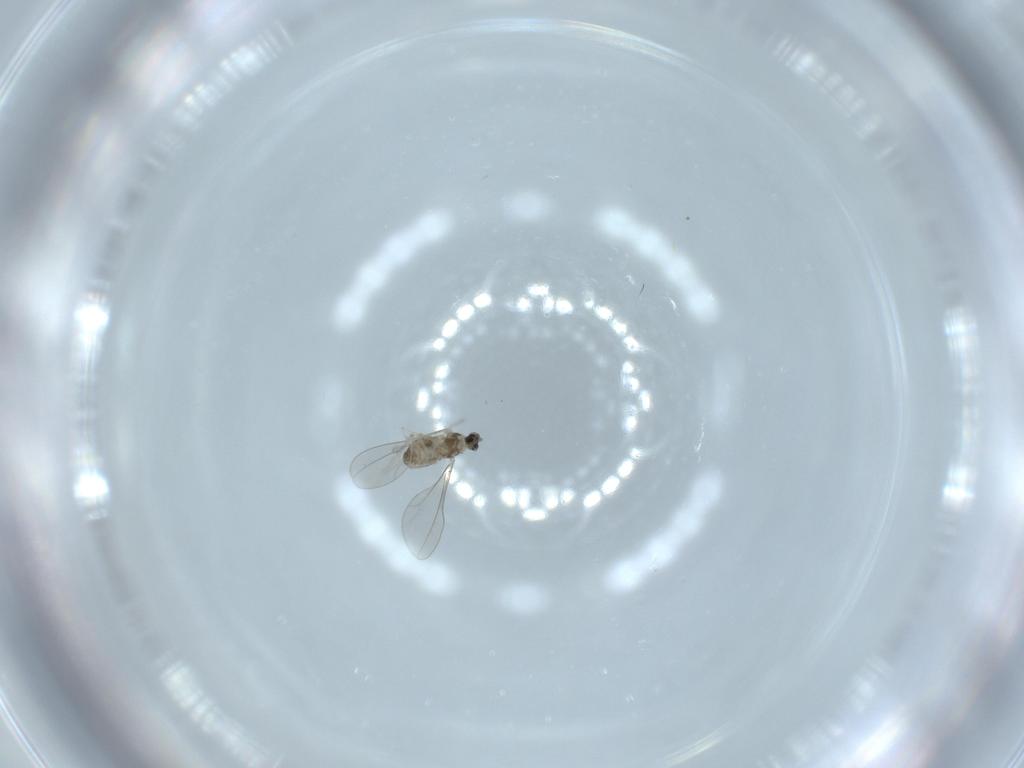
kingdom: Animalia
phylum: Arthropoda
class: Insecta
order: Diptera
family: Cecidomyiidae
